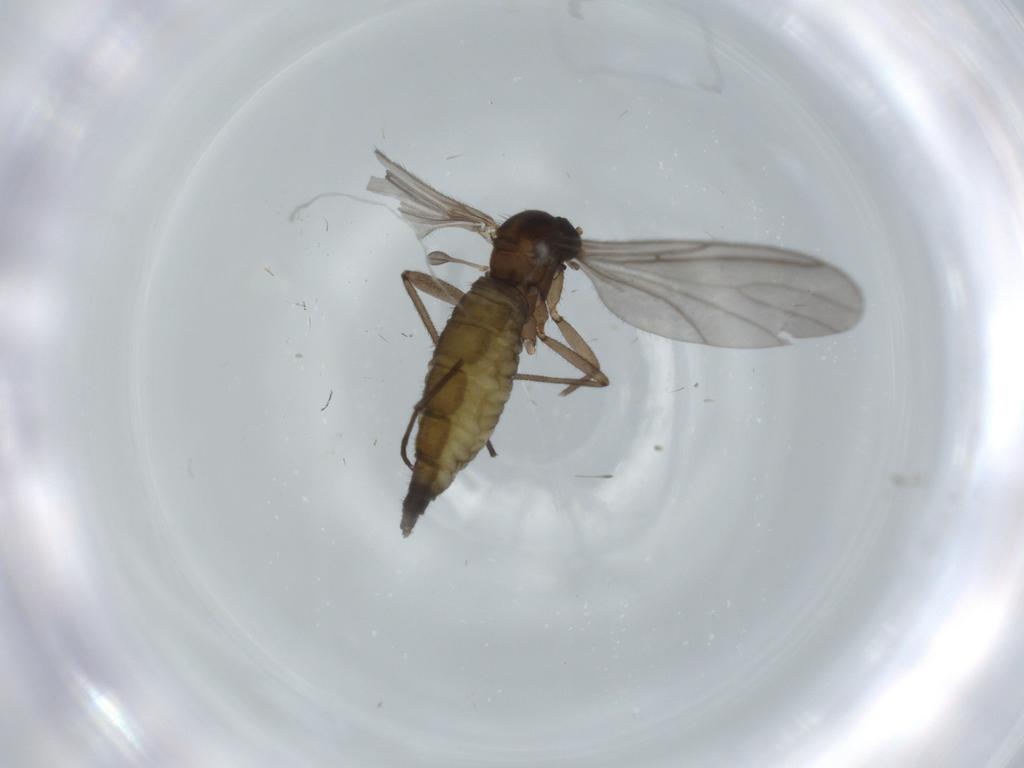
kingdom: Animalia
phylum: Arthropoda
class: Insecta
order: Diptera
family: Sciaridae
